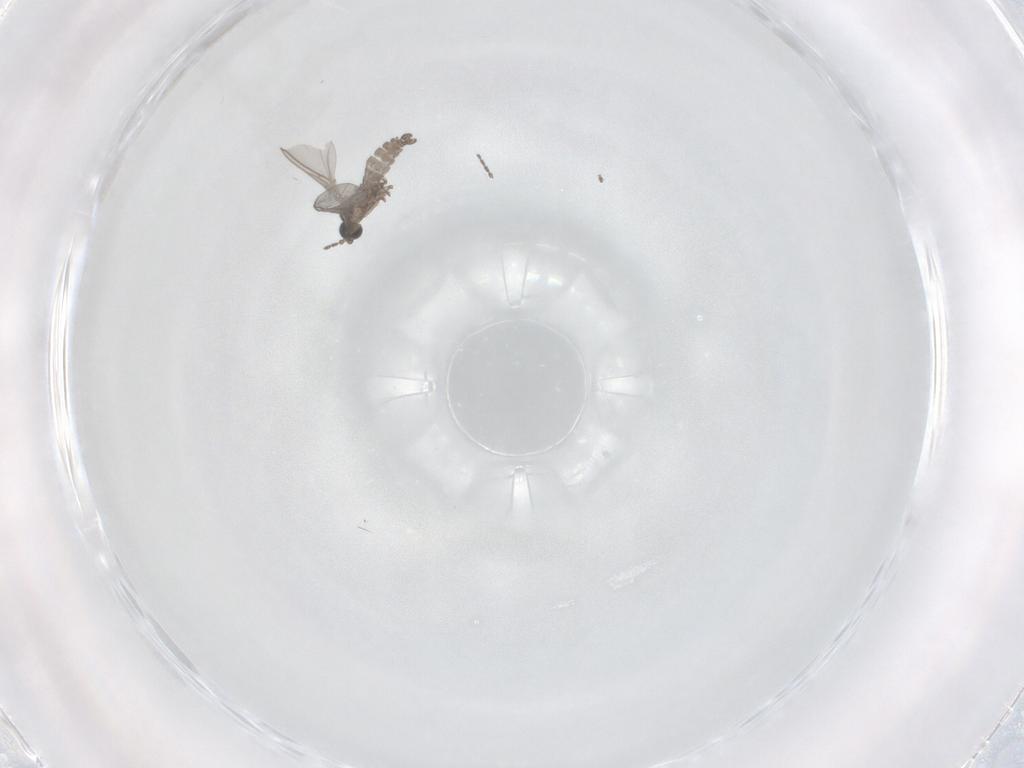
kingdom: Animalia
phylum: Arthropoda
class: Insecta
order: Diptera
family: Sciaridae
